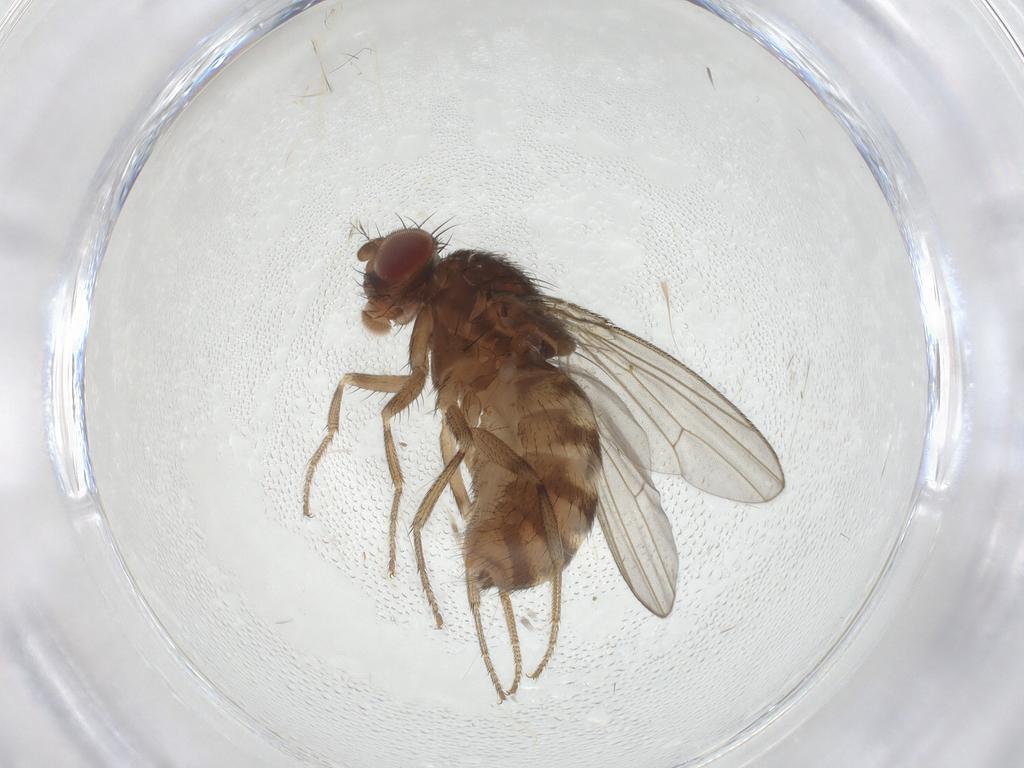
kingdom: Animalia
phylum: Arthropoda
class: Insecta
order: Diptera
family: Drosophilidae
